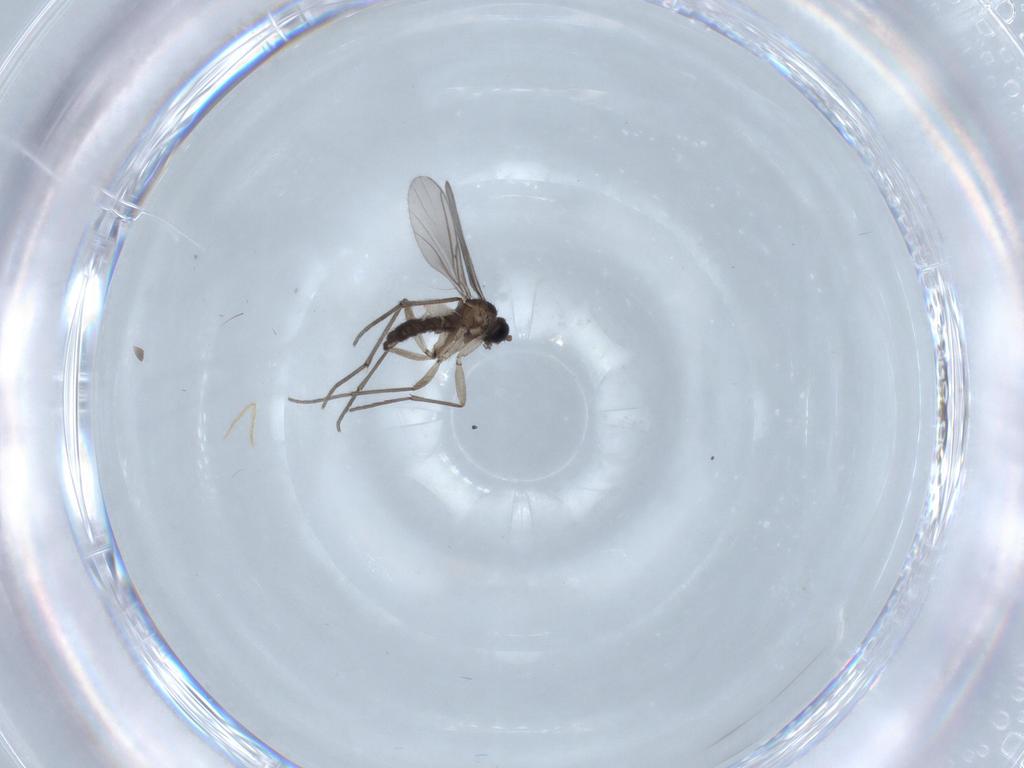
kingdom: Animalia
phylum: Arthropoda
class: Insecta
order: Diptera
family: Sciaridae
